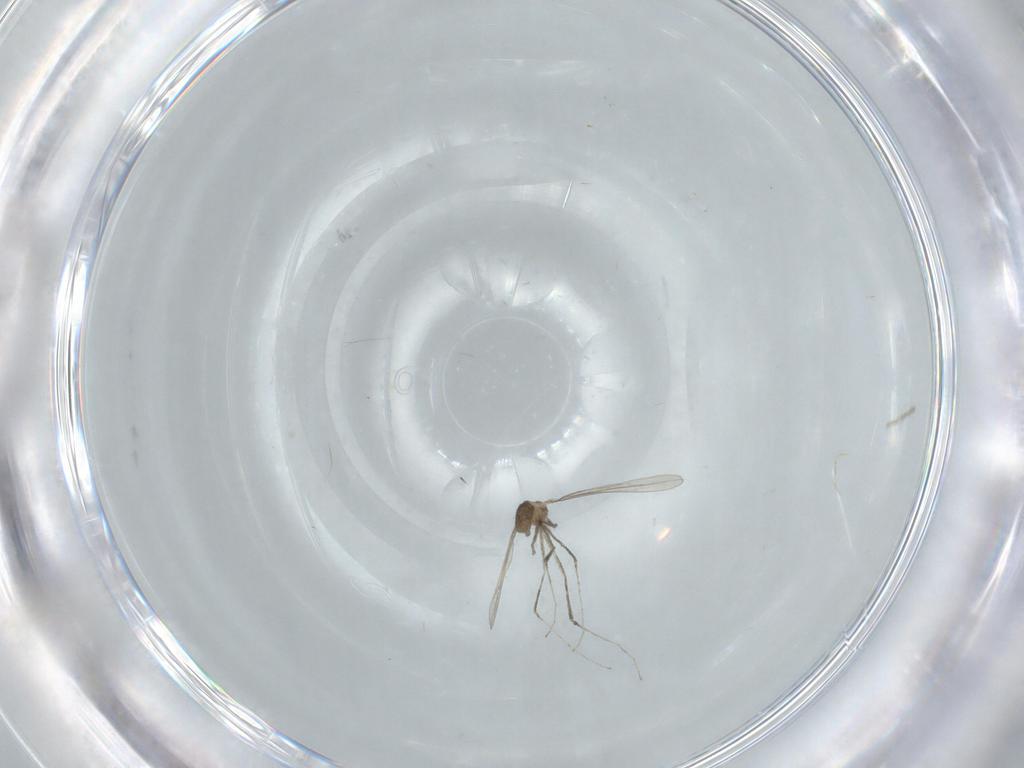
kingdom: Animalia
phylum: Arthropoda
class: Insecta
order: Diptera
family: Cecidomyiidae
